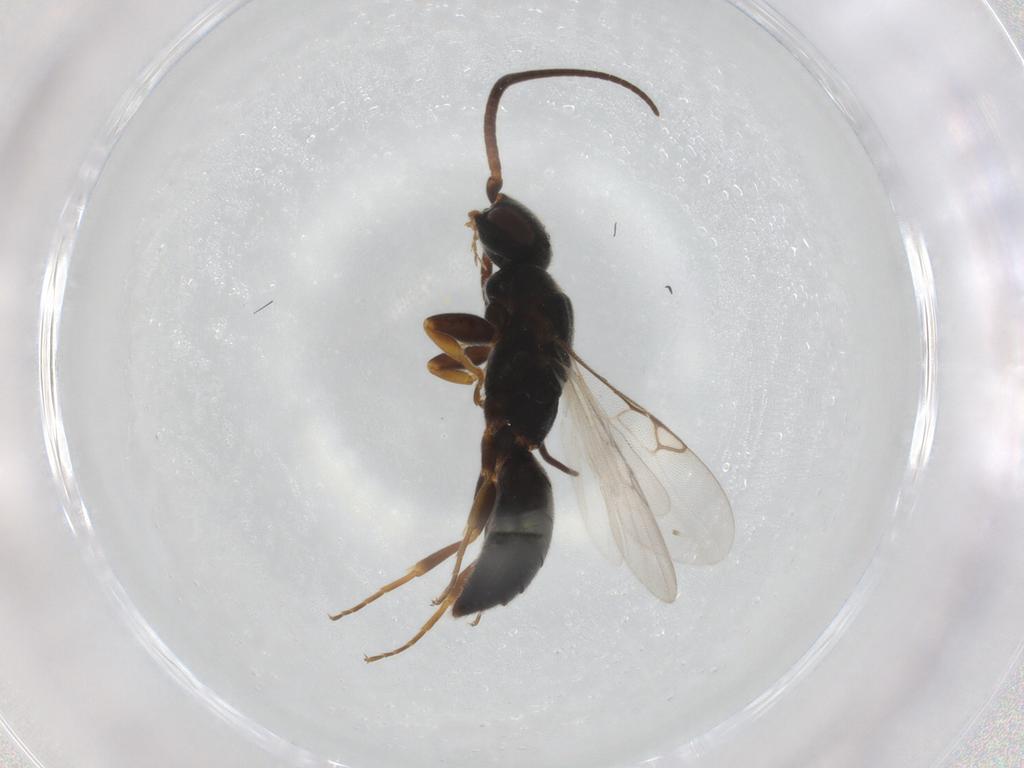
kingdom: Animalia
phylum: Arthropoda
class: Insecta
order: Hymenoptera
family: Sclerogibbidae
